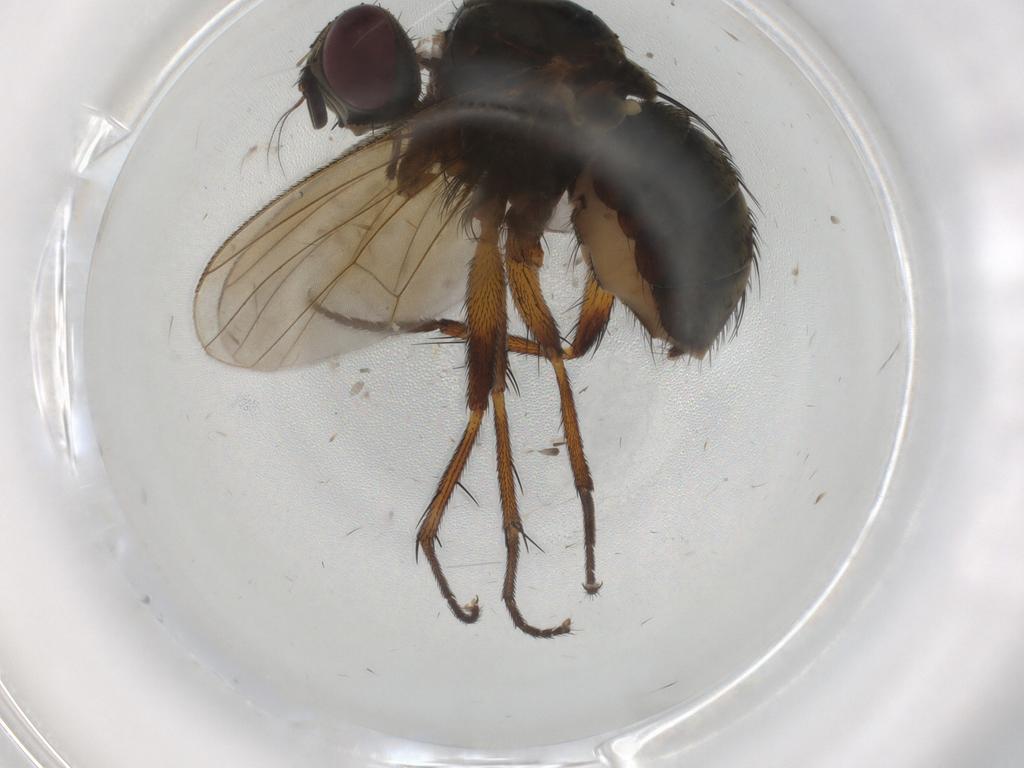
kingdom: Animalia
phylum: Arthropoda
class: Insecta
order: Diptera
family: Muscidae
